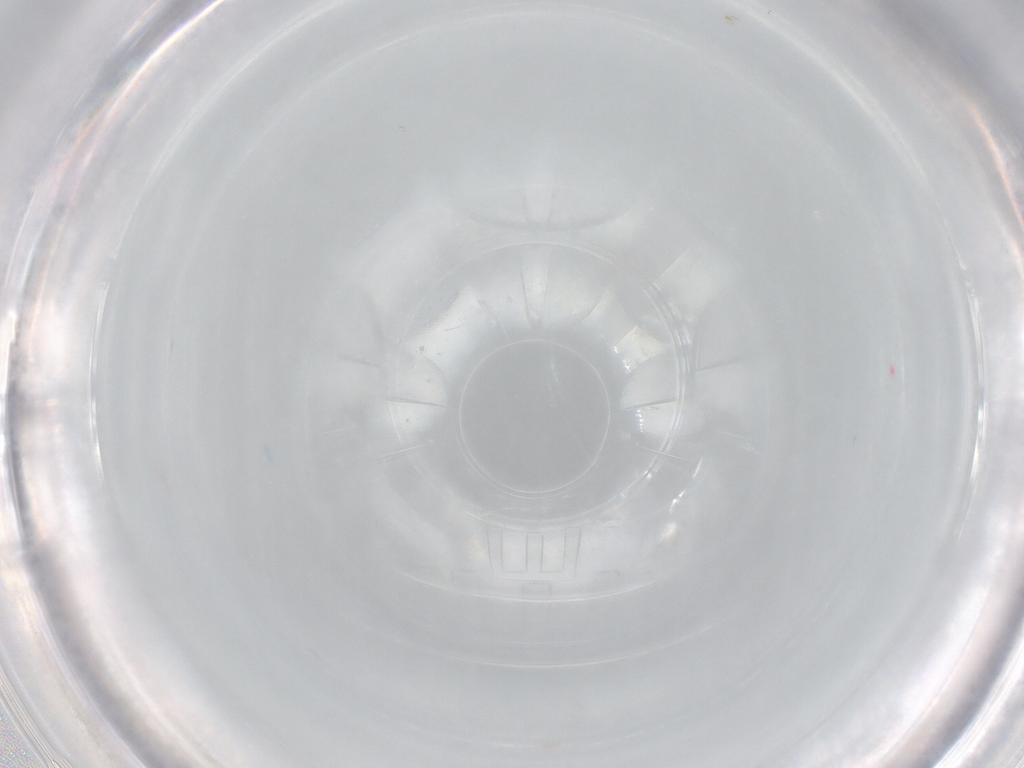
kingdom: Animalia
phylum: Arthropoda
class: Collembola
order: Entomobryomorpha
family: Entomobryidae
